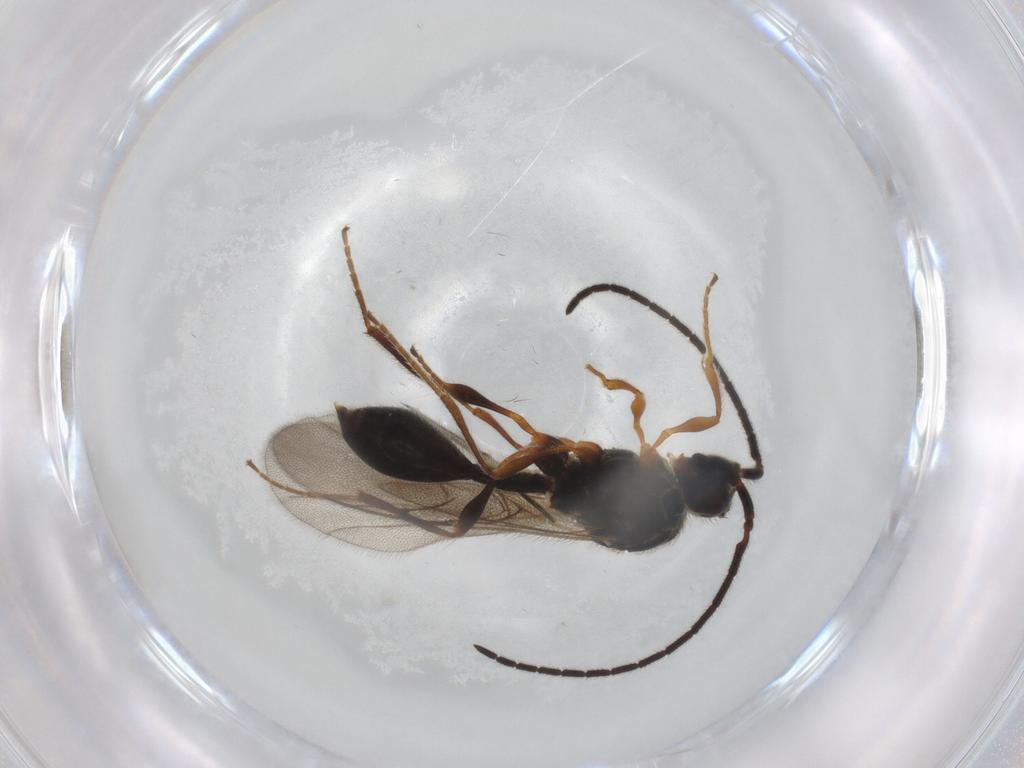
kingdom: Animalia
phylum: Arthropoda
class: Insecta
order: Hymenoptera
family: Diapriidae
